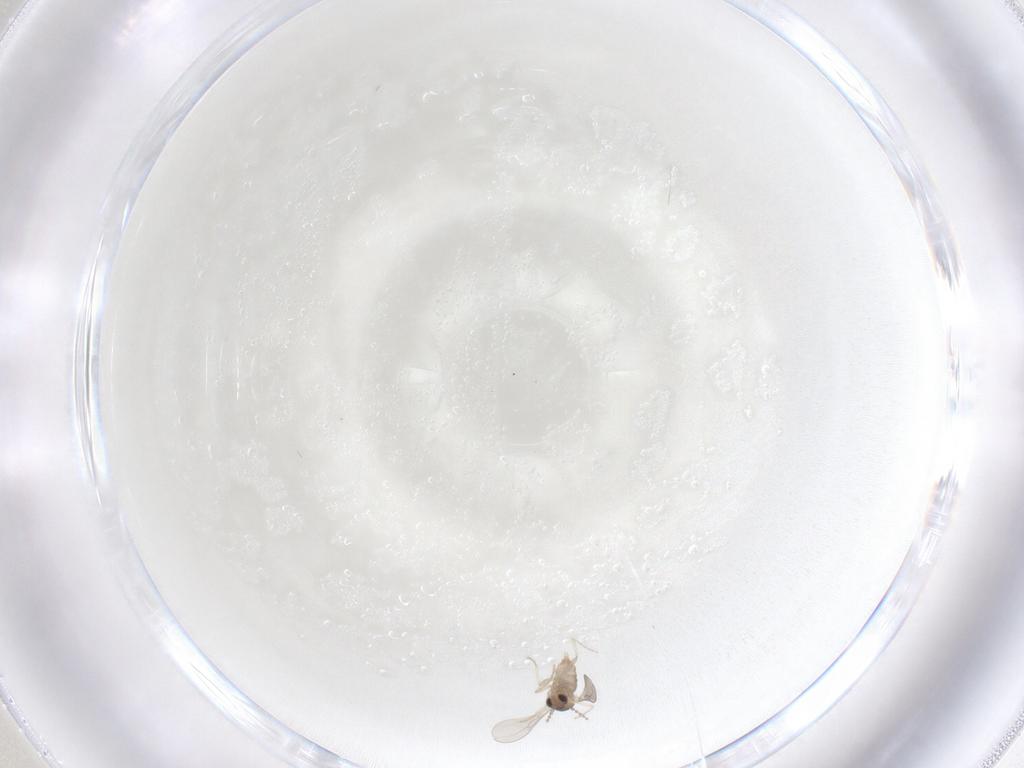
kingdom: Animalia
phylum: Arthropoda
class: Insecta
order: Diptera
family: Cecidomyiidae
